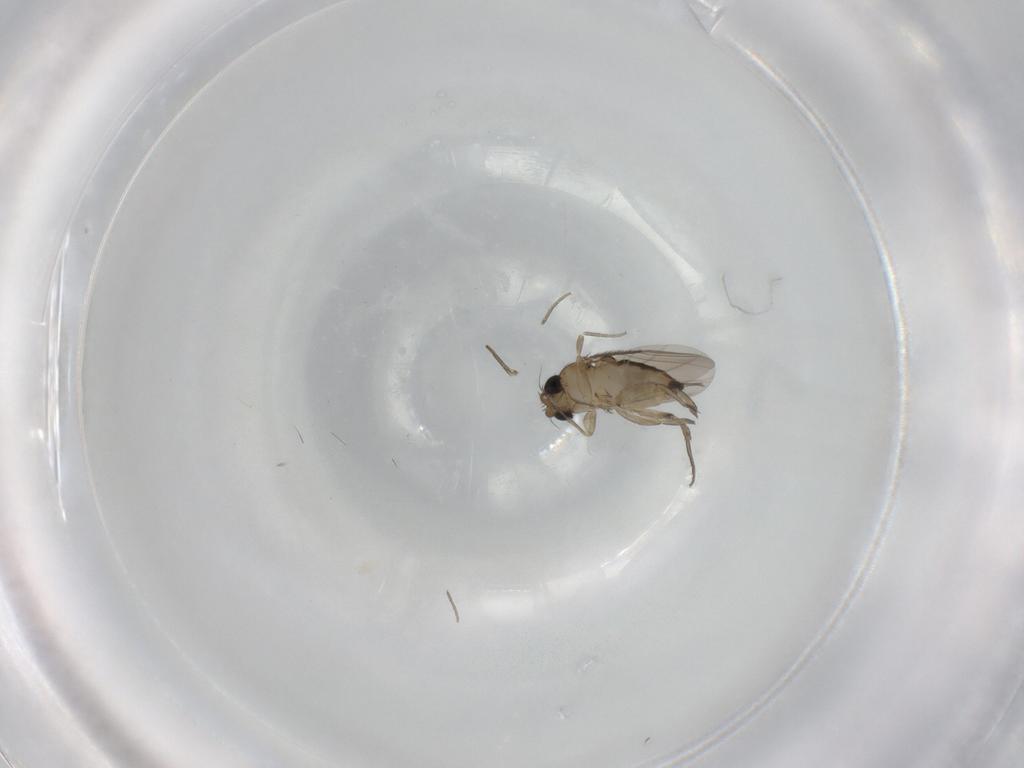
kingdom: Animalia
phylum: Arthropoda
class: Insecta
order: Diptera
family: Phoridae
